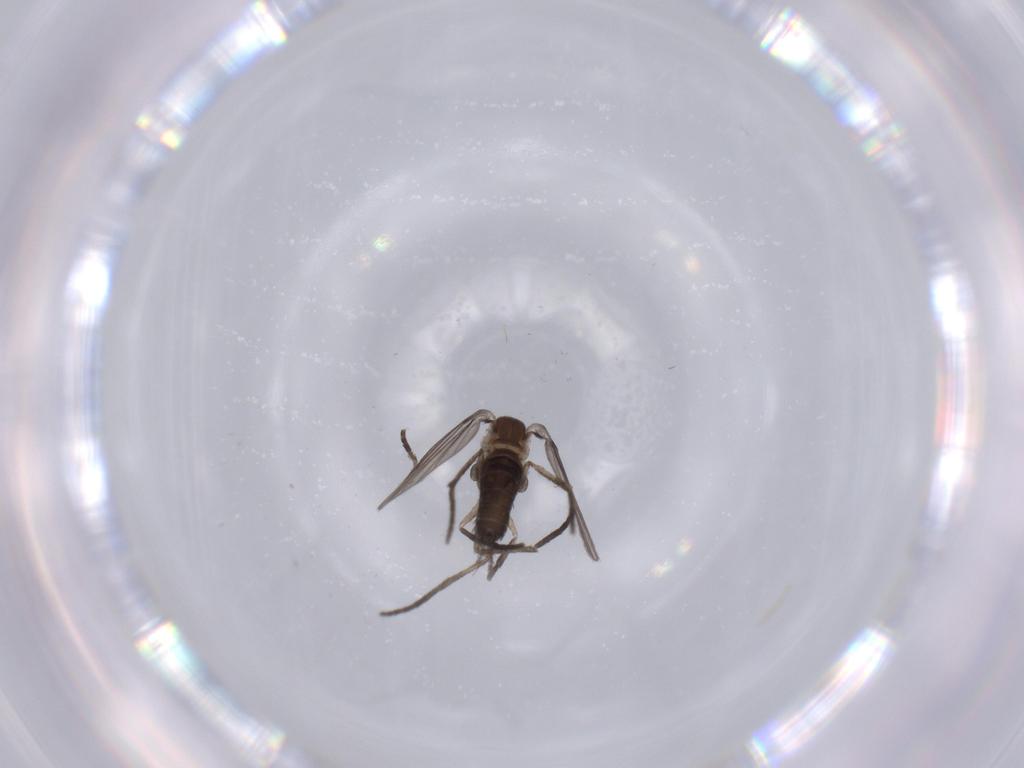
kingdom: Animalia
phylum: Arthropoda
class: Insecta
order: Diptera
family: Psychodidae
